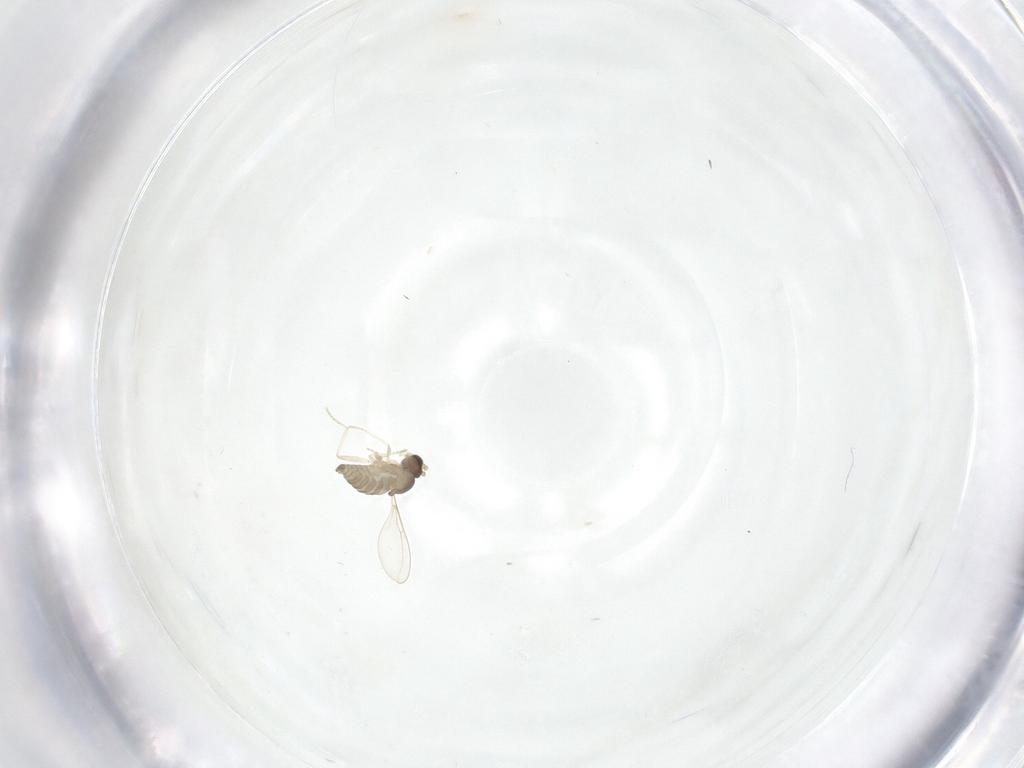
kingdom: Animalia
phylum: Arthropoda
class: Insecta
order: Diptera
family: Cecidomyiidae
